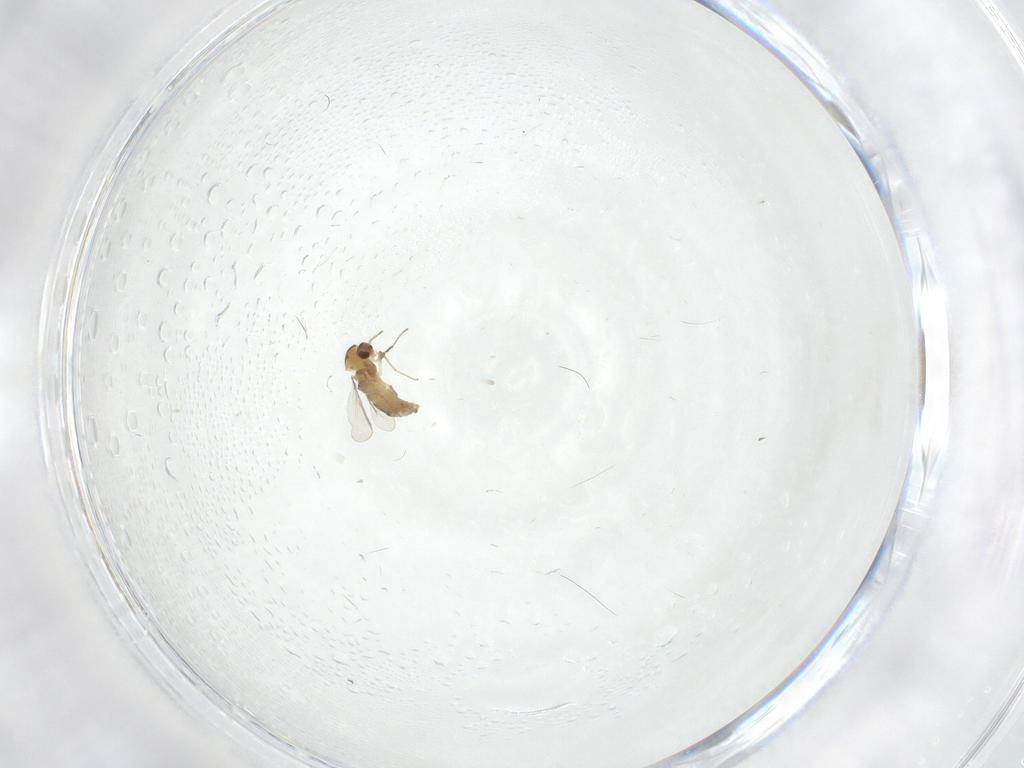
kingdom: Animalia
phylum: Arthropoda
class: Insecta
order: Diptera
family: Chironomidae
